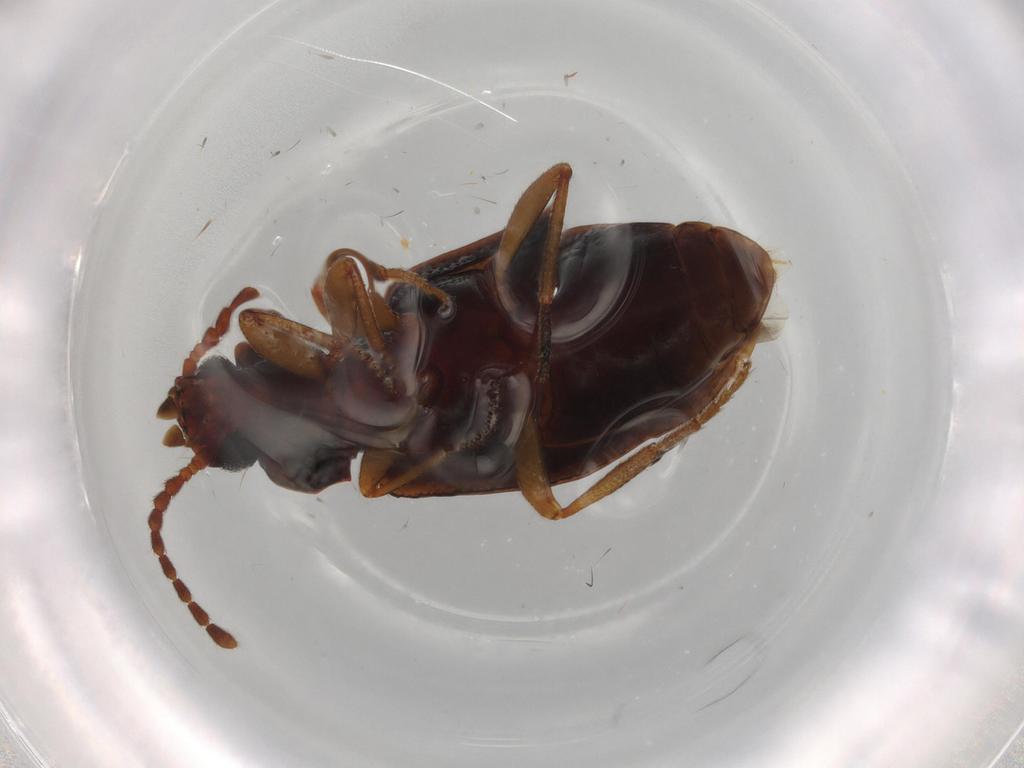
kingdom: Animalia
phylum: Arthropoda
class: Insecta
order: Coleoptera
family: Tenebrionidae
